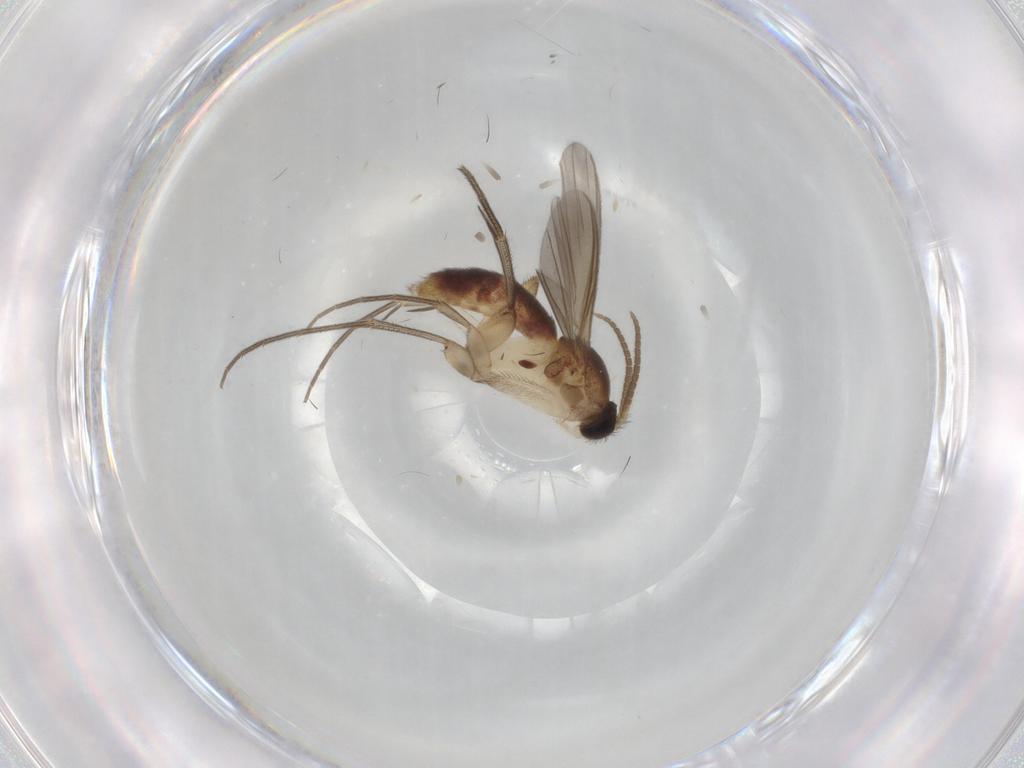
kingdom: Animalia
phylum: Arthropoda
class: Insecta
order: Diptera
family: Mycetophilidae
